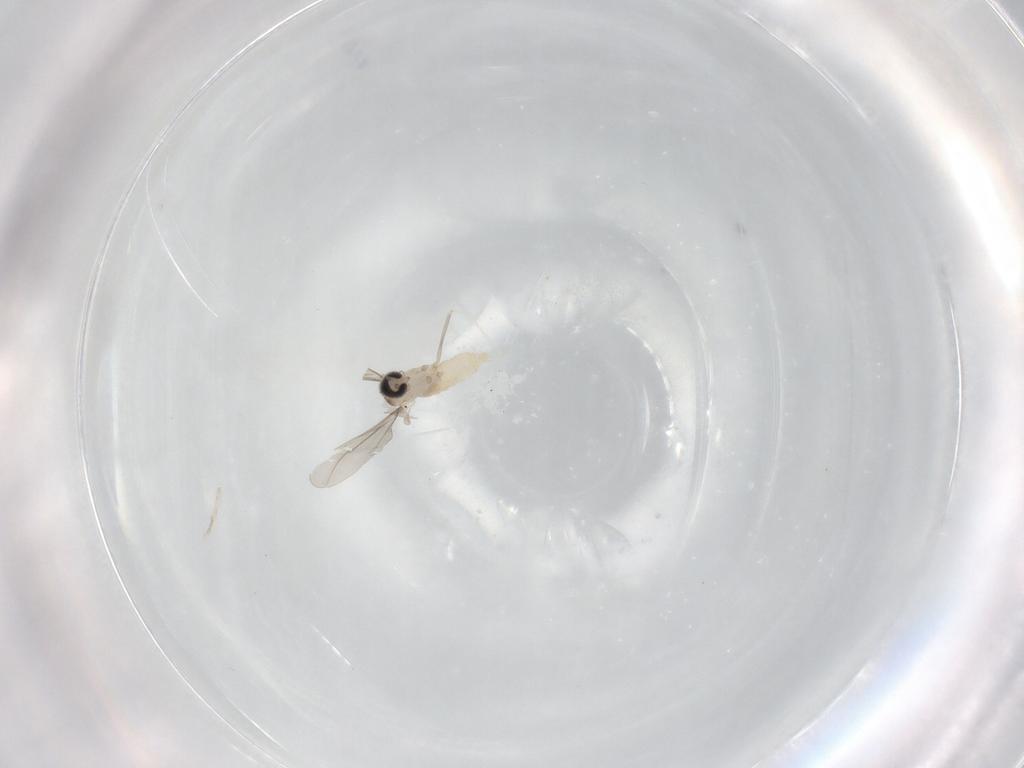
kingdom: Animalia
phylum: Arthropoda
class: Insecta
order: Diptera
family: Cecidomyiidae
